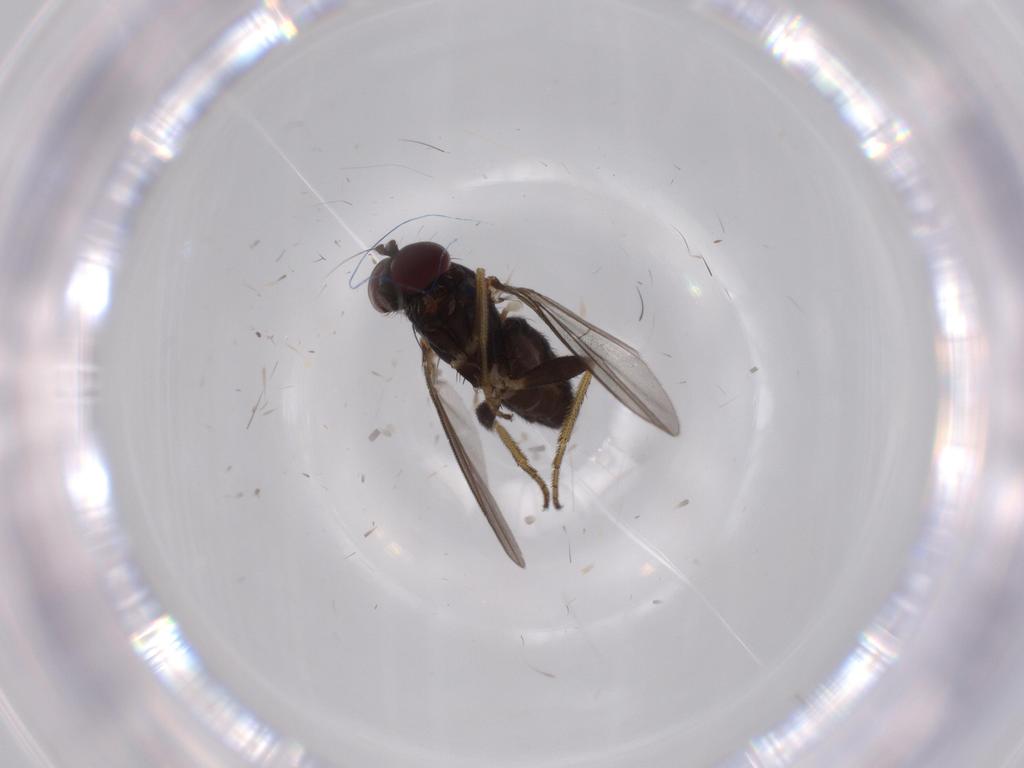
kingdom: Animalia
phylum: Arthropoda
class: Insecta
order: Diptera
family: Dolichopodidae
